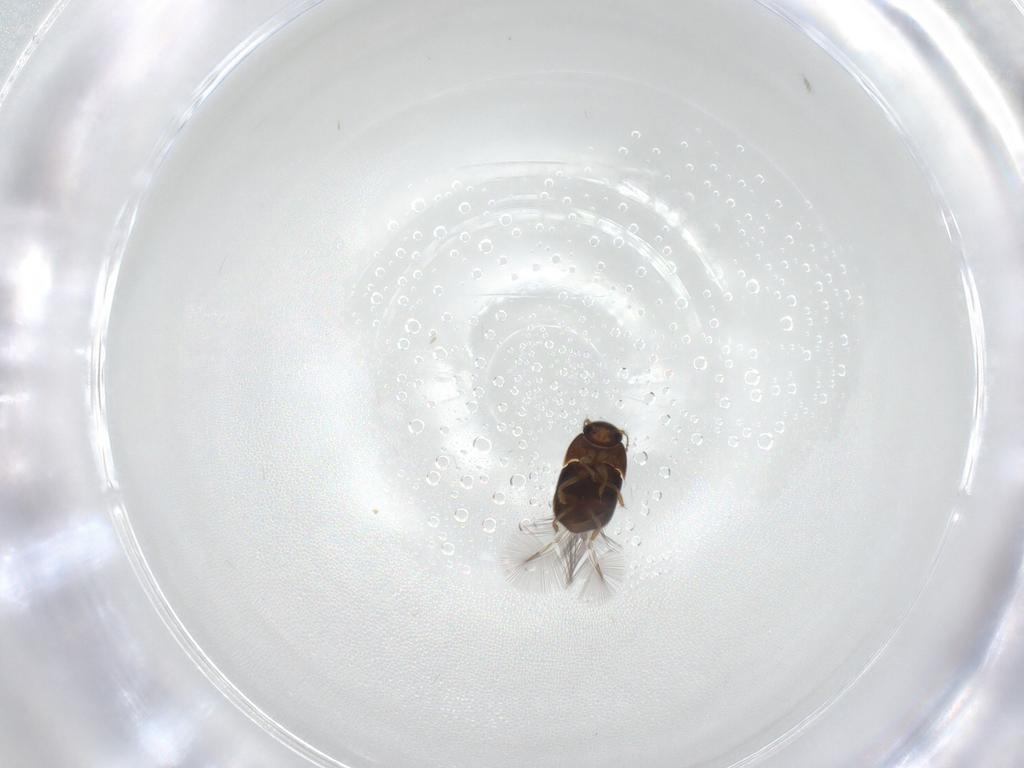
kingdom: Animalia
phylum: Arthropoda
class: Insecta
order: Coleoptera
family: Ptiliidae
